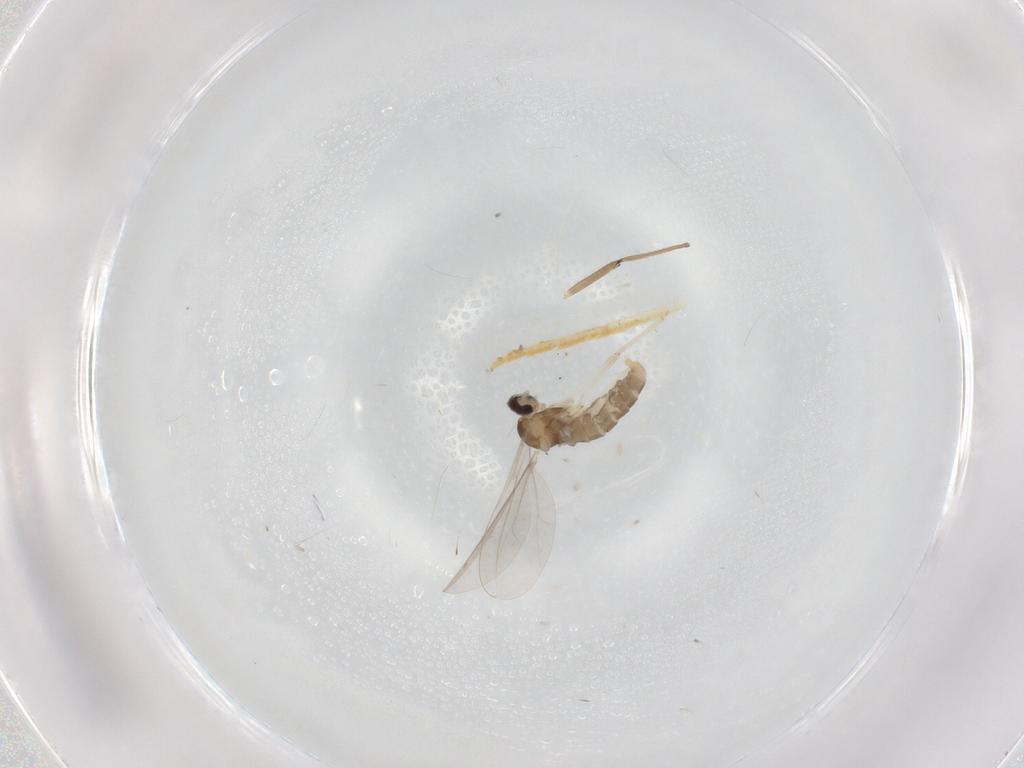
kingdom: Animalia
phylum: Arthropoda
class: Insecta
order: Diptera
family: Cecidomyiidae
